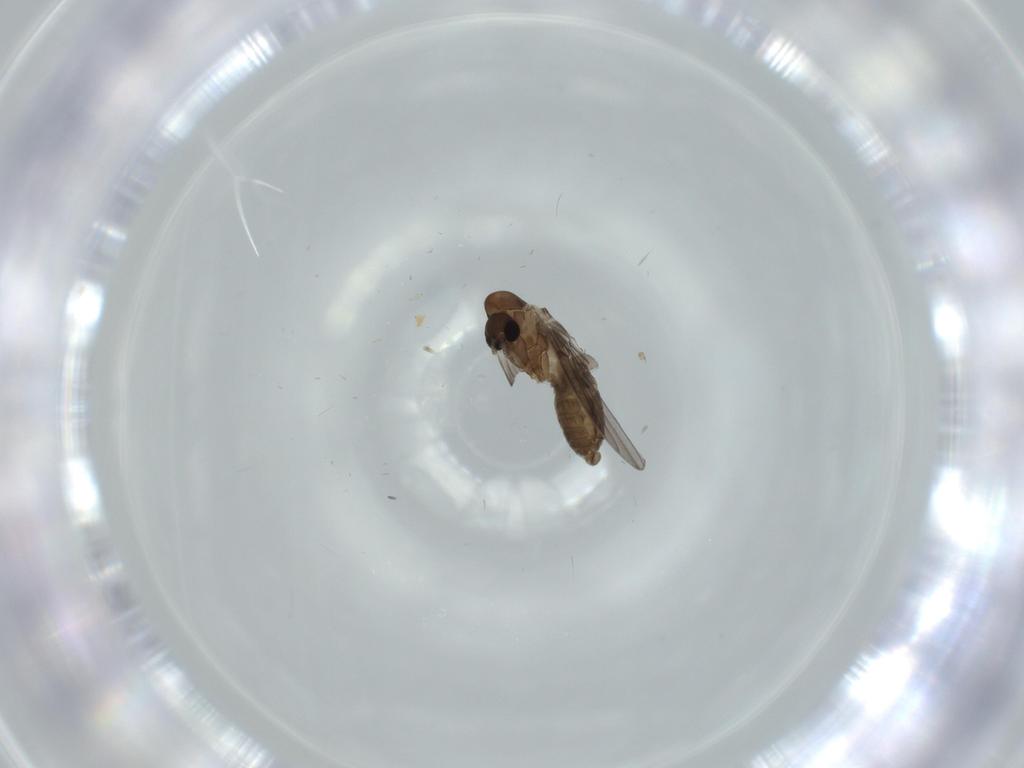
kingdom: Animalia
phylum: Arthropoda
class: Insecta
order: Diptera
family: Psychodidae
